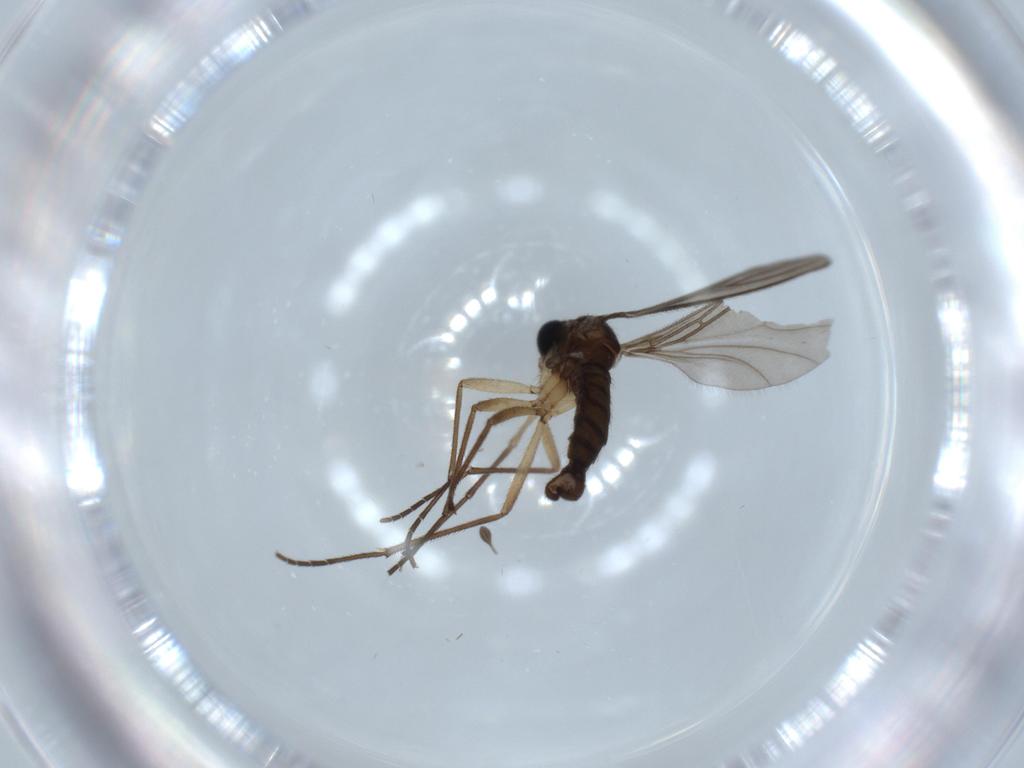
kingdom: Animalia
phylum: Arthropoda
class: Insecta
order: Diptera
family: Sciaridae
